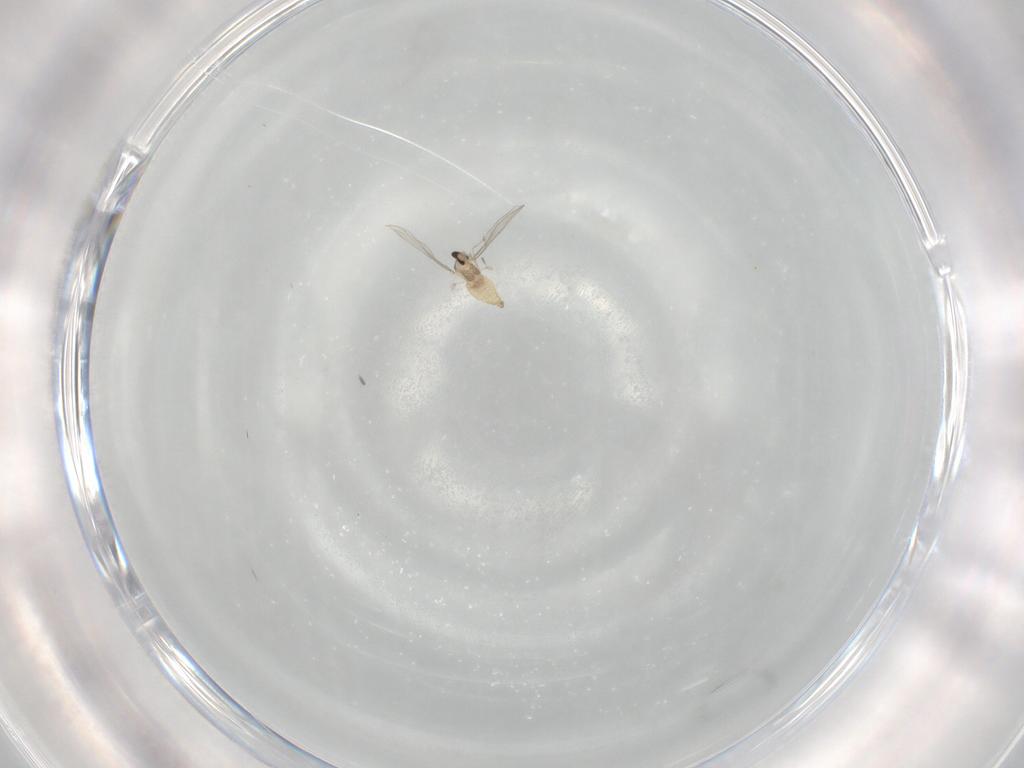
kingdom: Animalia
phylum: Arthropoda
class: Insecta
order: Diptera
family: Cecidomyiidae
